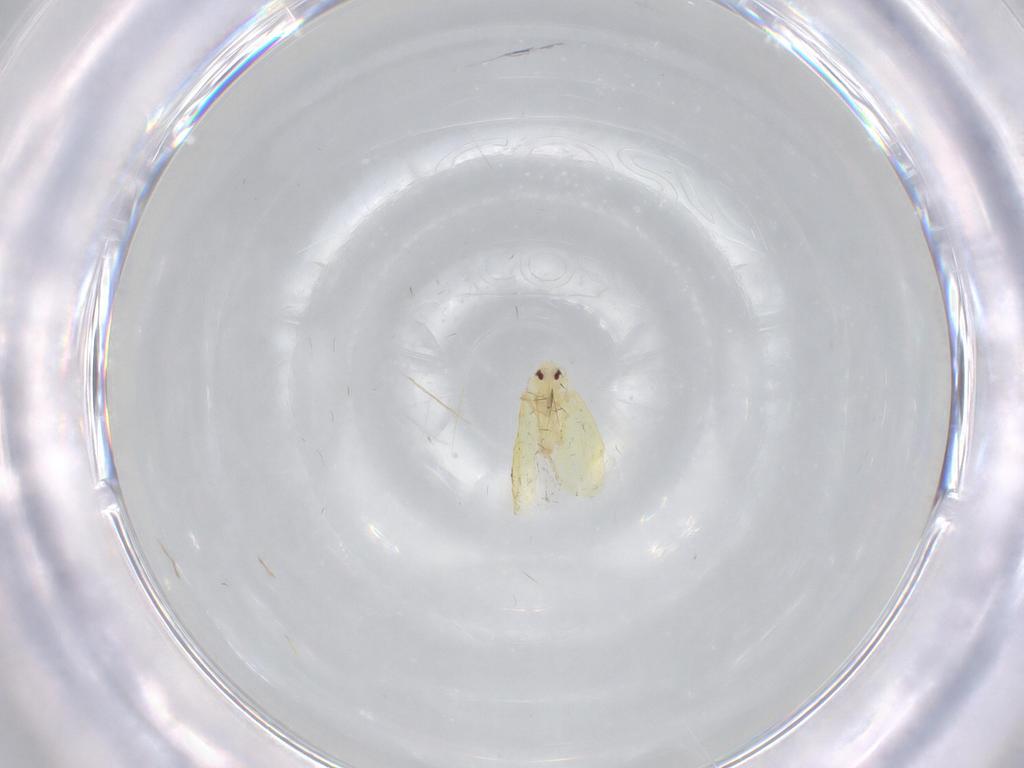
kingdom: Animalia
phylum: Arthropoda
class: Insecta
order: Hemiptera
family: Aleyrodidae
